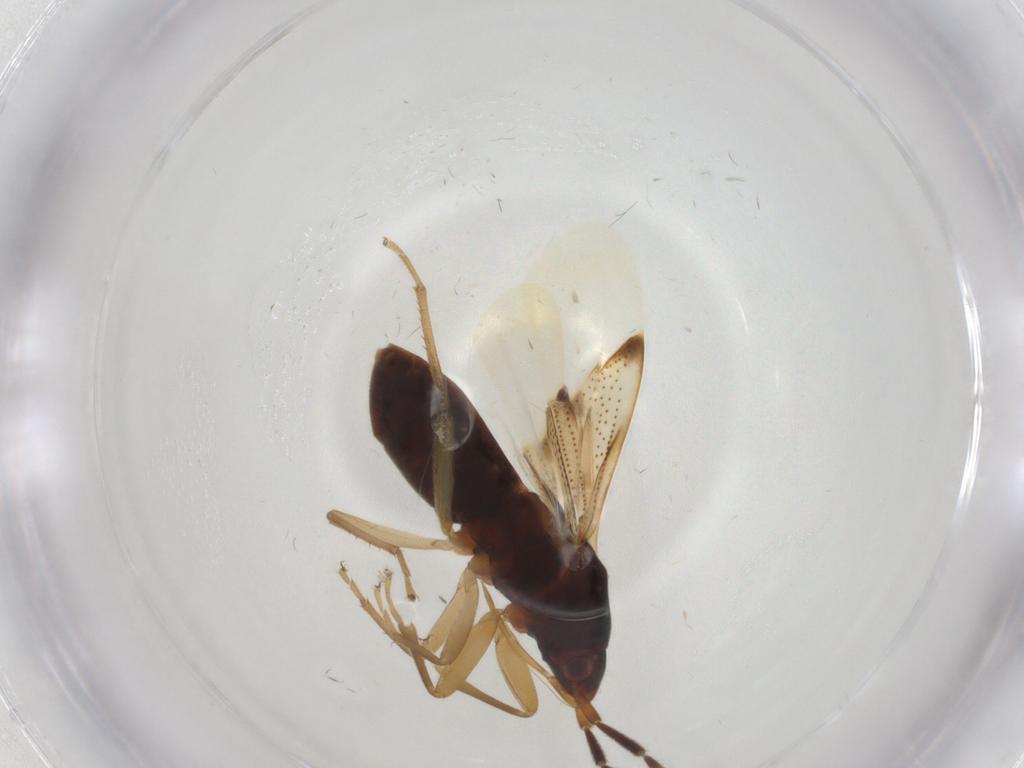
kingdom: Animalia
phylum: Arthropoda
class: Insecta
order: Hemiptera
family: Rhyparochromidae
